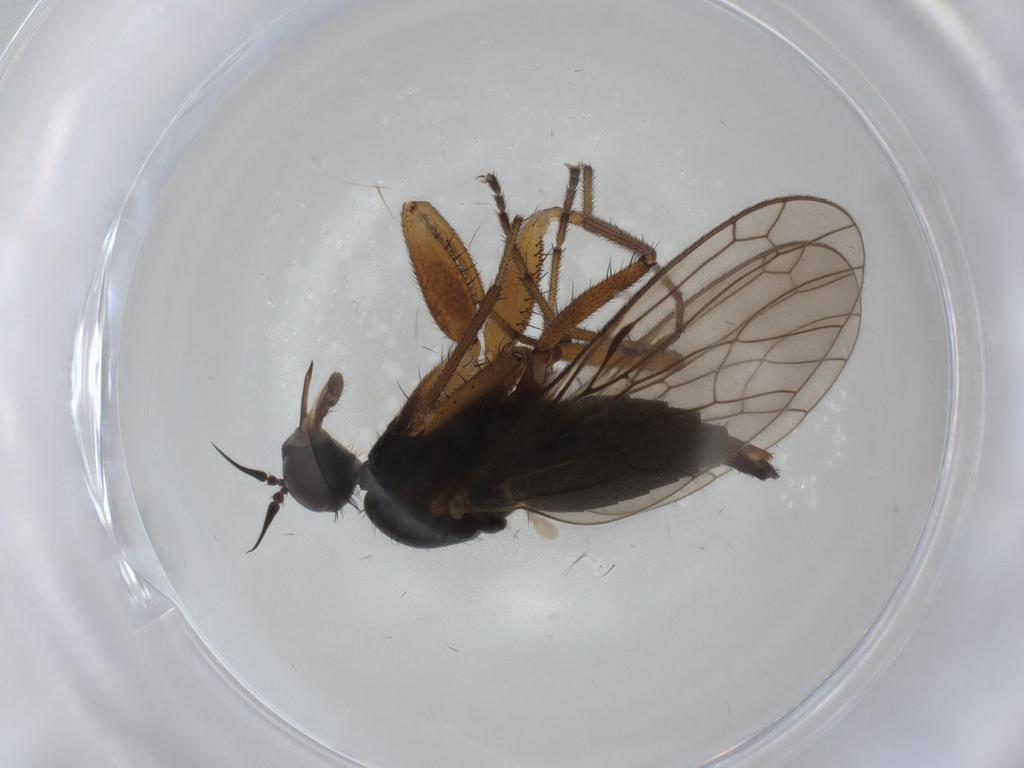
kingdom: Animalia
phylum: Arthropoda
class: Insecta
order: Diptera
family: Empididae
